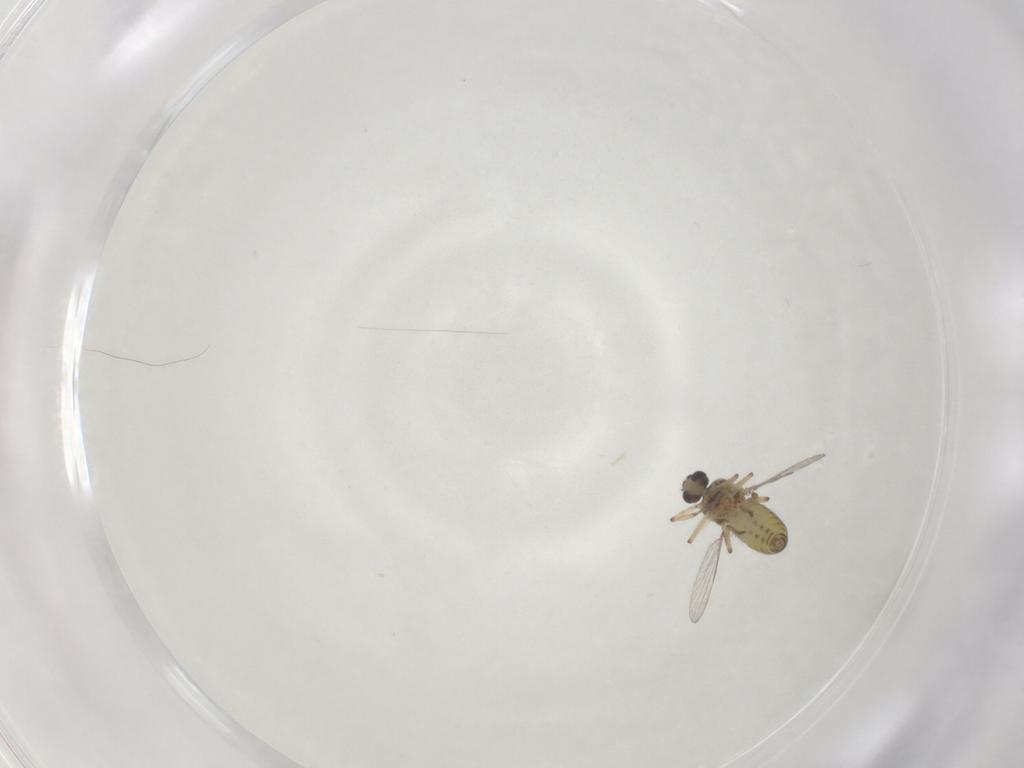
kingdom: Animalia
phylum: Arthropoda
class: Insecta
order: Diptera
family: Ceratopogonidae
